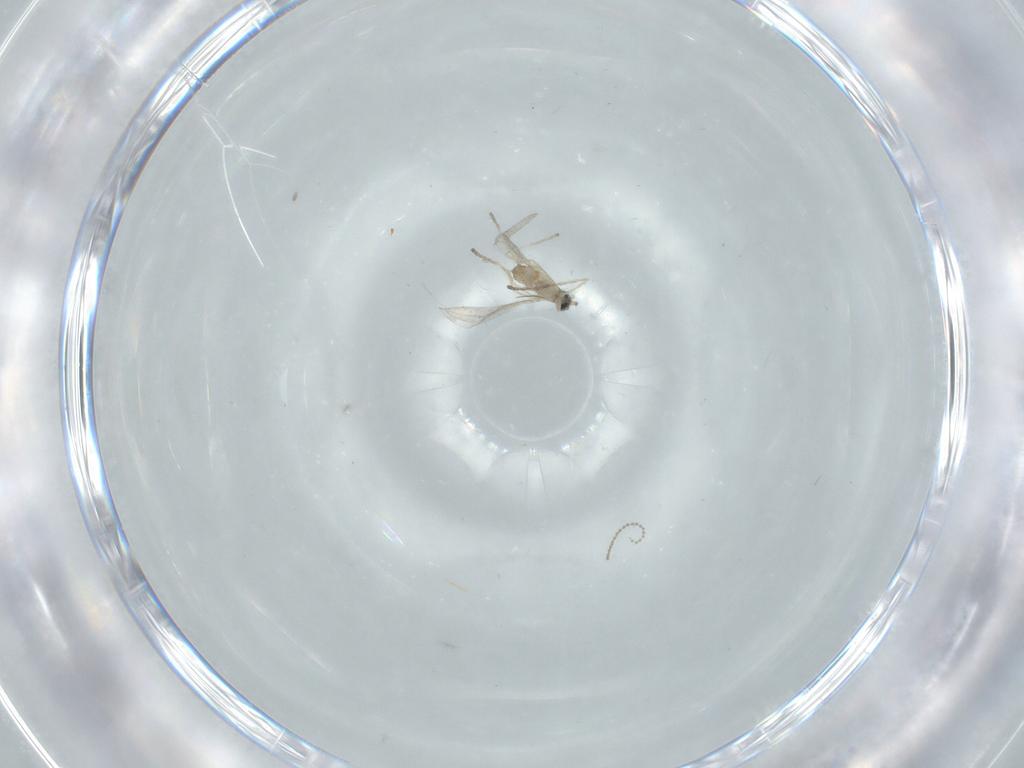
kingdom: Animalia
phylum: Arthropoda
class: Insecta
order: Diptera
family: Cecidomyiidae
